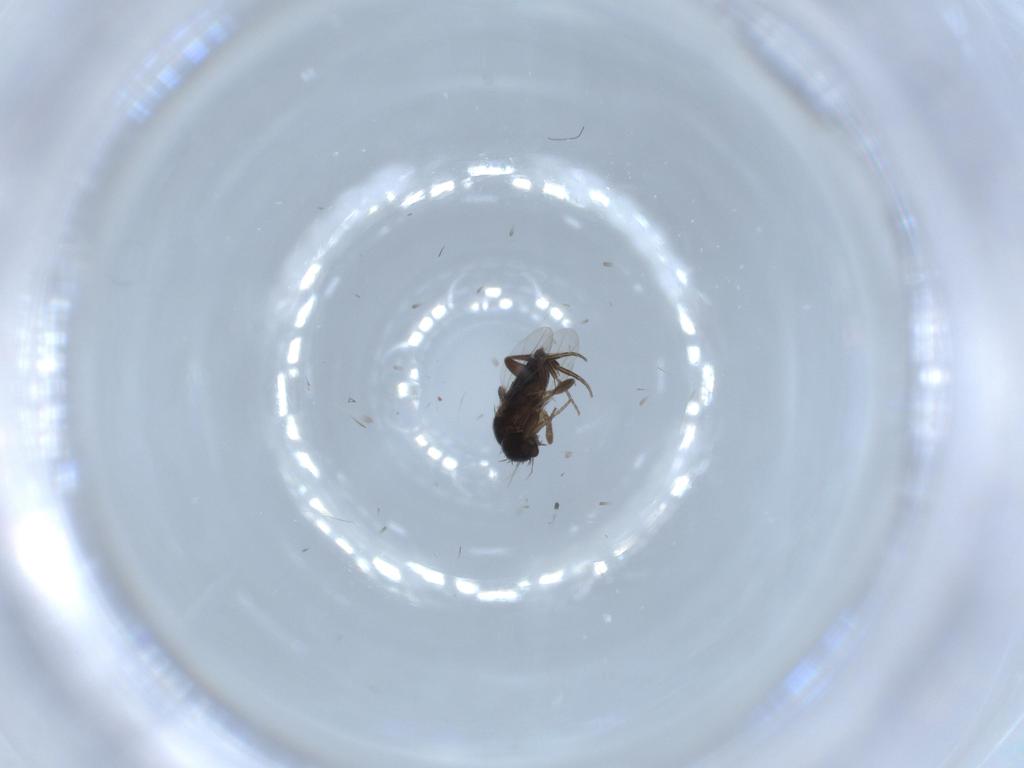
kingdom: Animalia
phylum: Arthropoda
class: Insecta
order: Diptera
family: Phoridae
